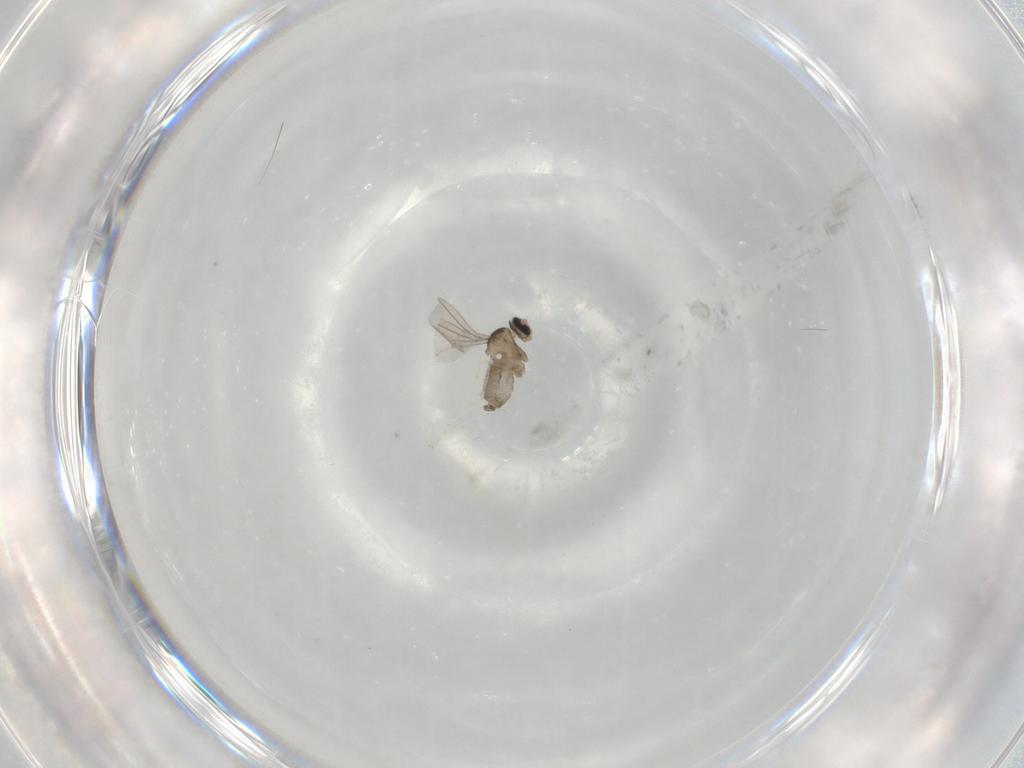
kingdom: Animalia
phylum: Arthropoda
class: Insecta
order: Diptera
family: Cecidomyiidae
